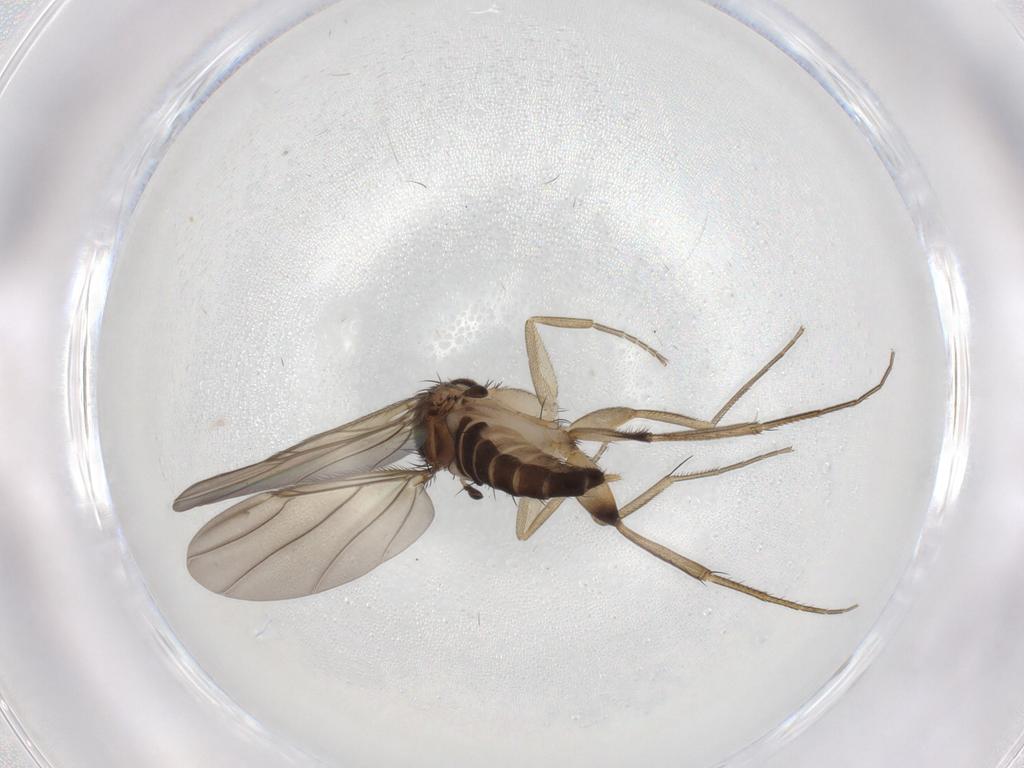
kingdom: Animalia
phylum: Arthropoda
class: Insecta
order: Diptera
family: Phoridae
